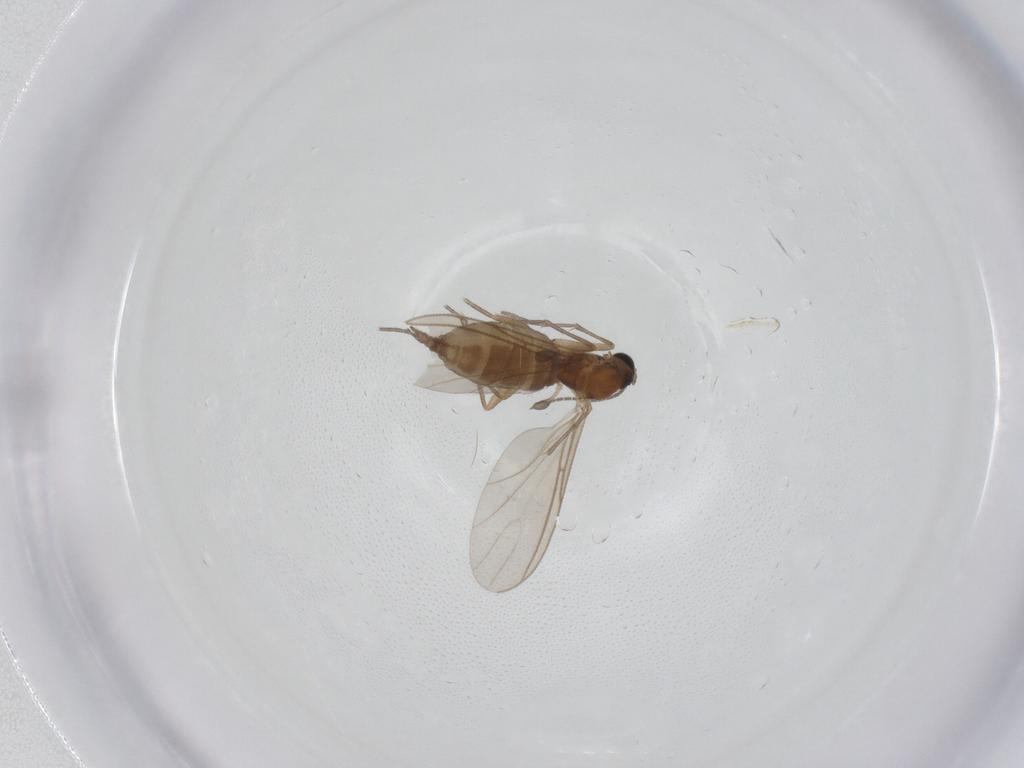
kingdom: Animalia
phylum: Arthropoda
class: Insecta
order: Diptera
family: Sciaridae
